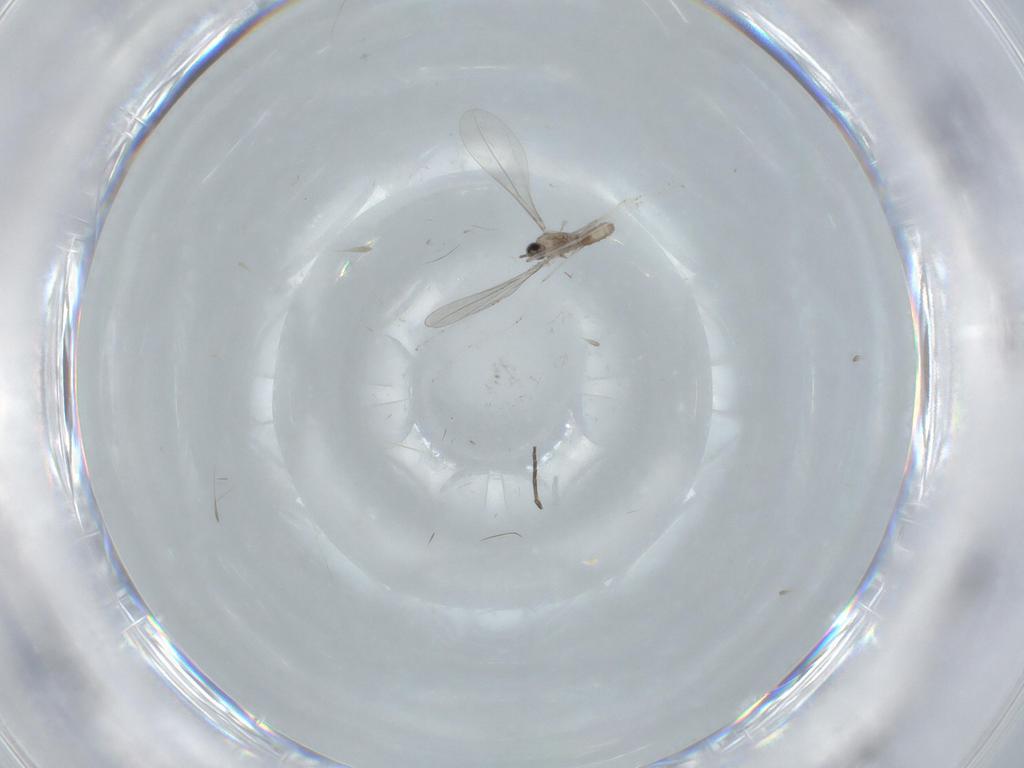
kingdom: Animalia
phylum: Arthropoda
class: Insecta
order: Diptera
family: Cecidomyiidae
